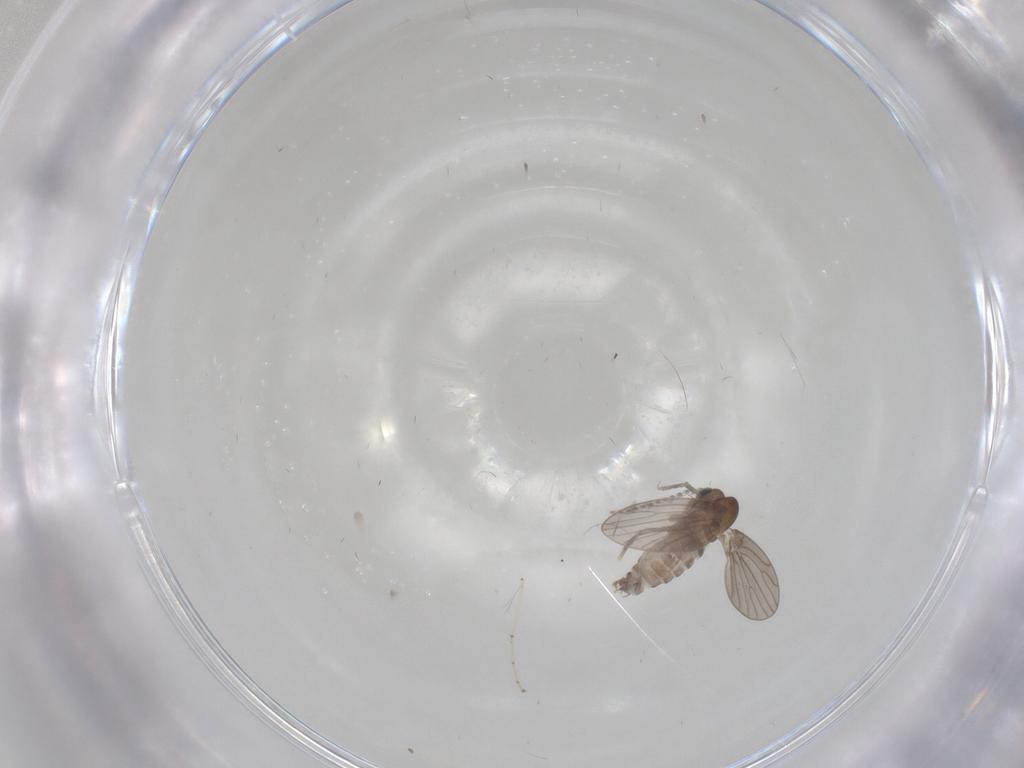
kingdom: Animalia
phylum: Arthropoda
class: Insecta
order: Diptera
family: Psychodidae
